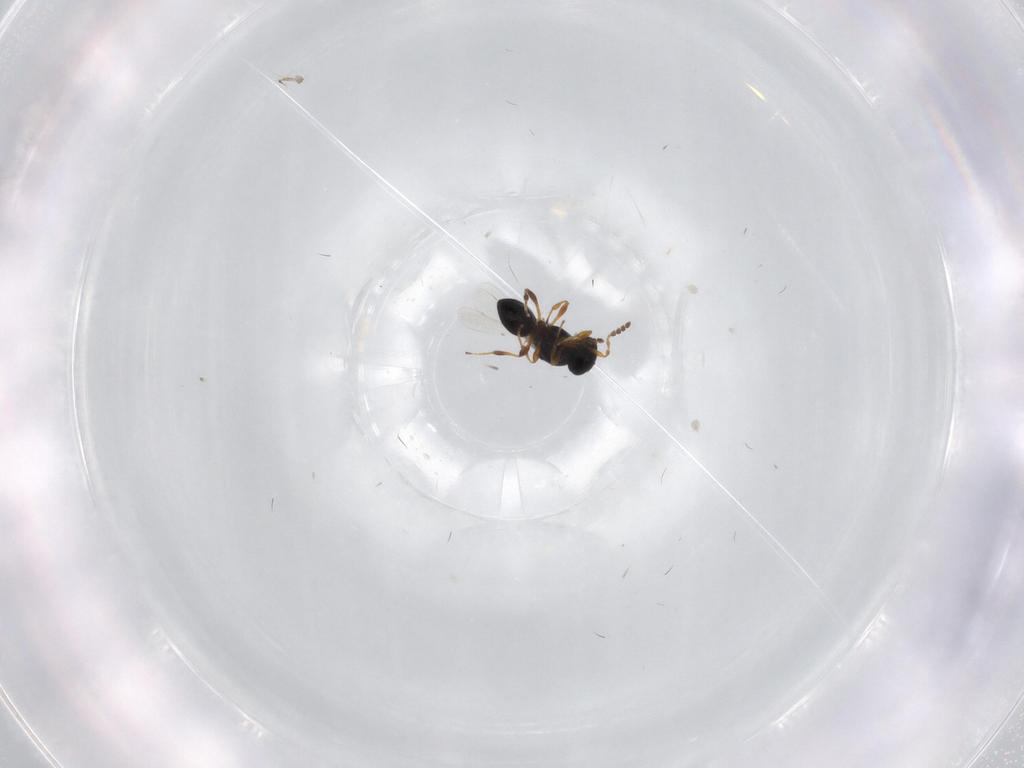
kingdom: Animalia
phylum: Arthropoda
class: Insecta
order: Hymenoptera
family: Platygastridae
